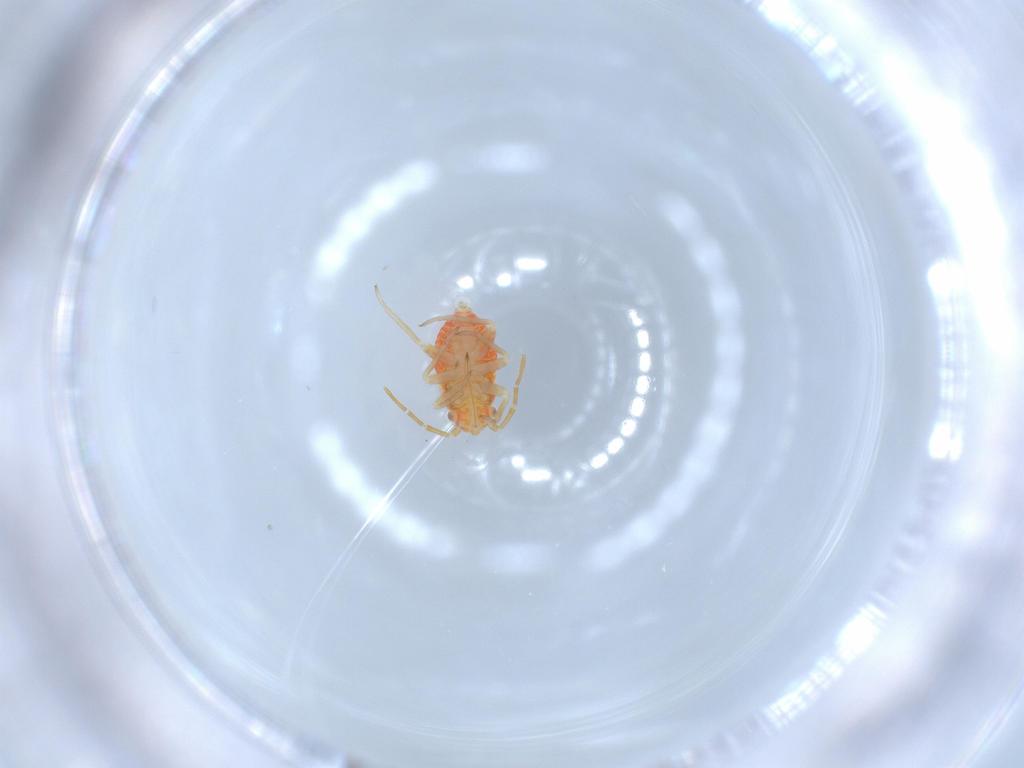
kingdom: Animalia
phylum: Arthropoda
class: Insecta
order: Hemiptera
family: Miridae
